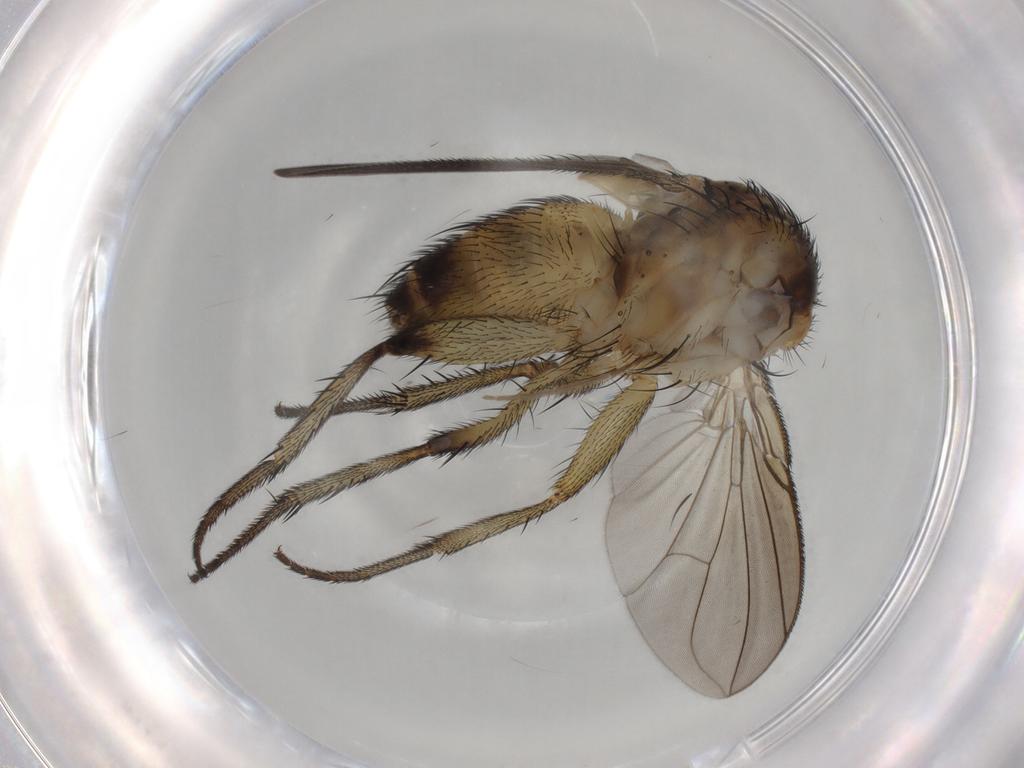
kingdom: Animalia
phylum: Arthropoda
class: Insecta
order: Diptera
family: Tachinidae
